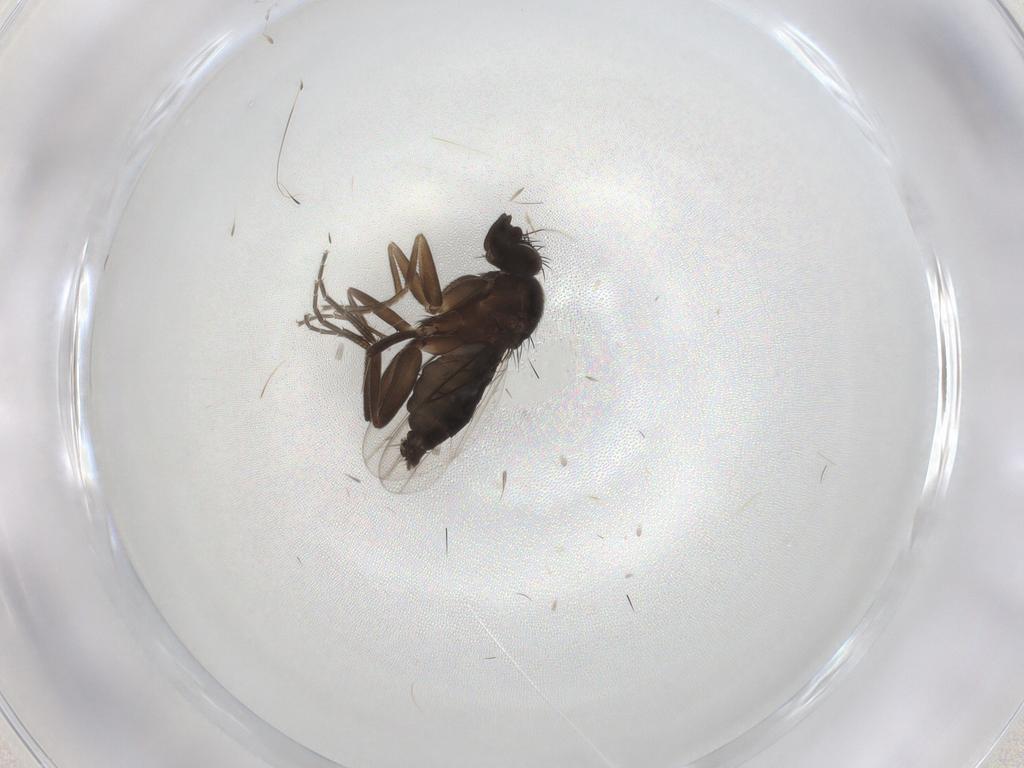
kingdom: Animalia
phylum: Arthropoda
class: Insecta
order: Diptera
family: Phoridae
